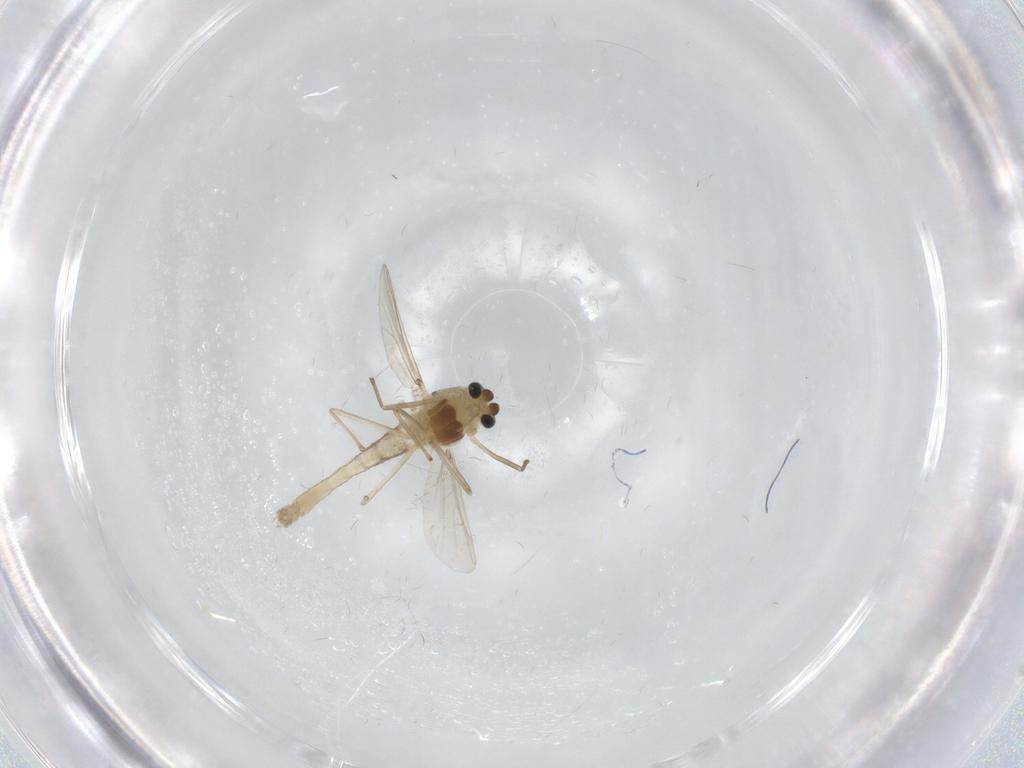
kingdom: Animalia
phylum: Arthropoda
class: Insecta
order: Diptera
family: Chironomidae
